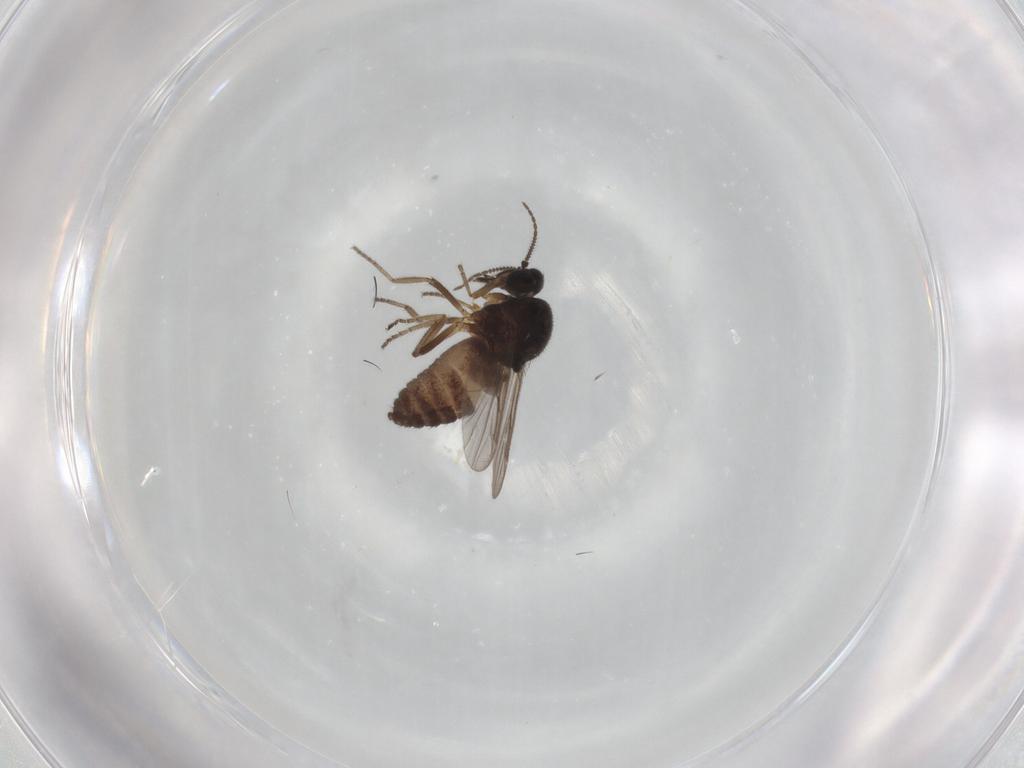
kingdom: Animalia
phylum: Arthropoda
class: Insecta
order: Diptera
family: Ceratopogonidae
